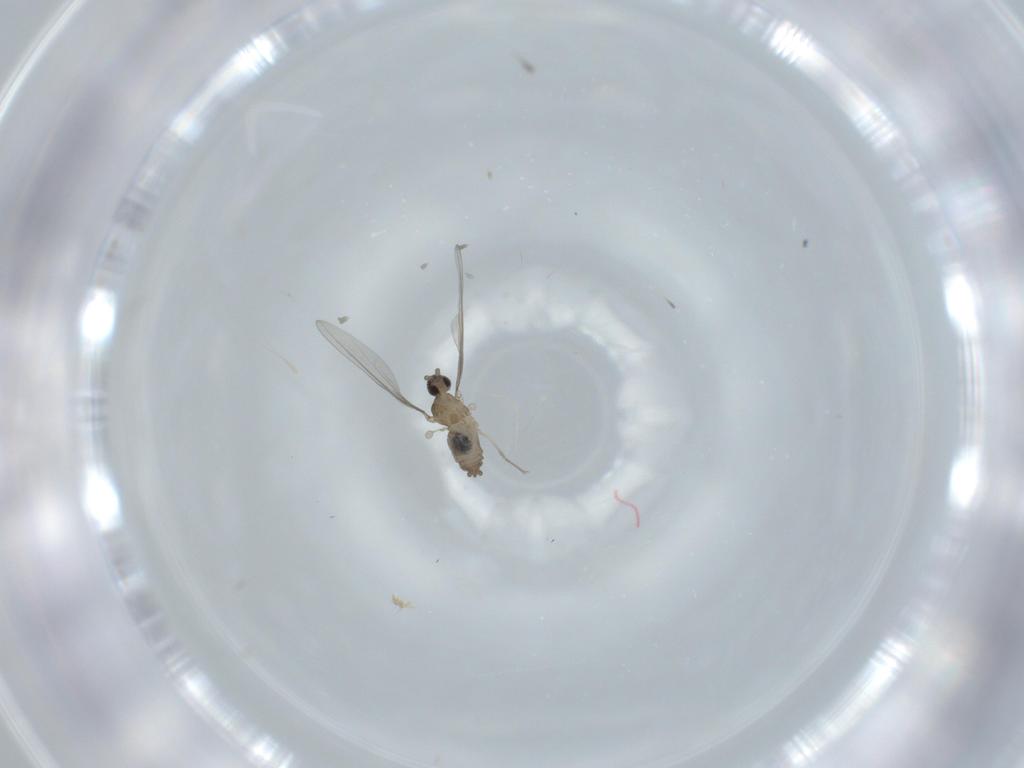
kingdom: Animalia
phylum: Arthropoda
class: Insecta
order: Diptera
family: Cecidomyiidae
